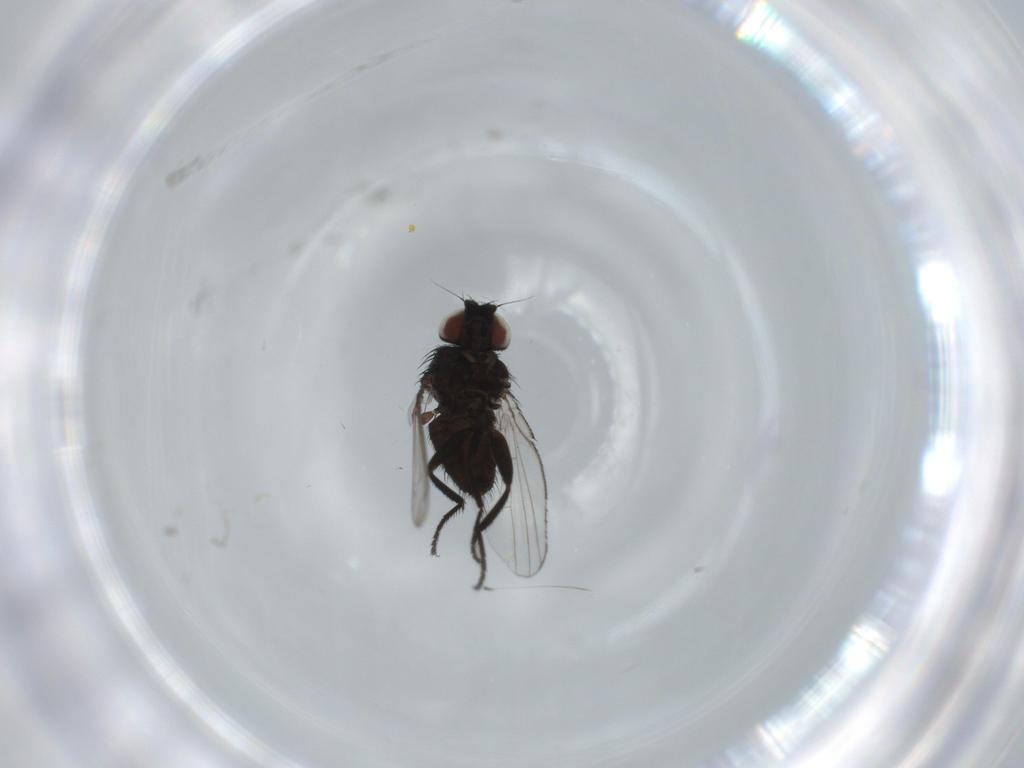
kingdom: Animalia
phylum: Arthropoda
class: Insecta
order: Diptera
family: Milichiidae
